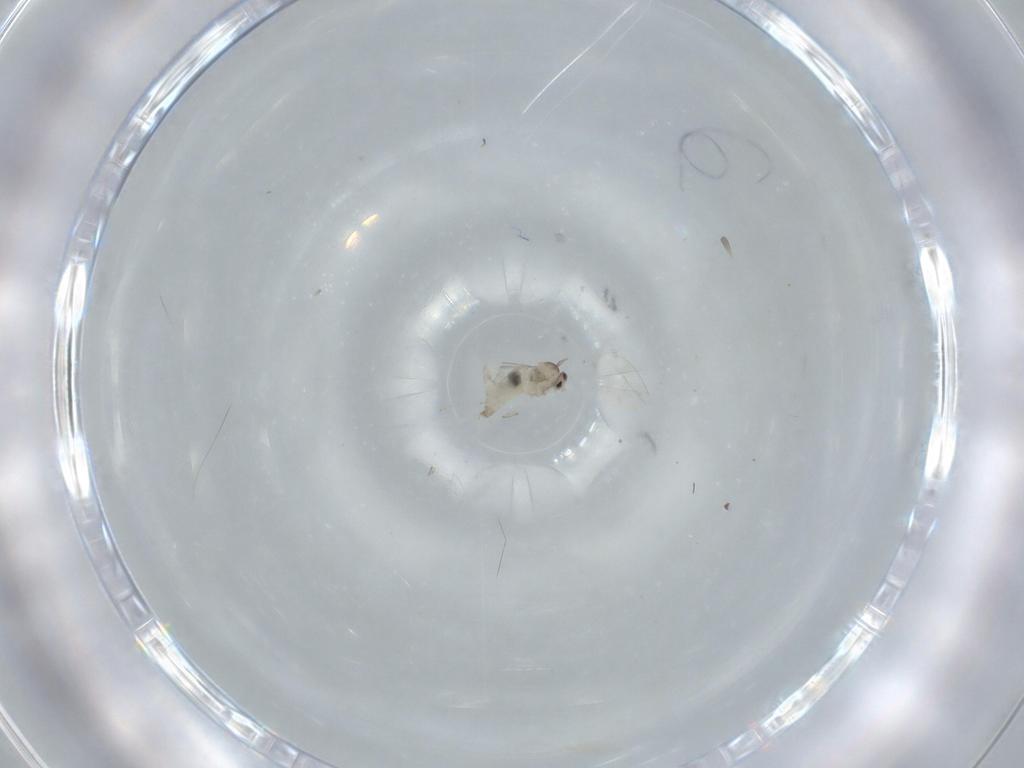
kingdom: Animalia
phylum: Arthropoda
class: Insecta
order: Diptera
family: Cecidomyiidae
